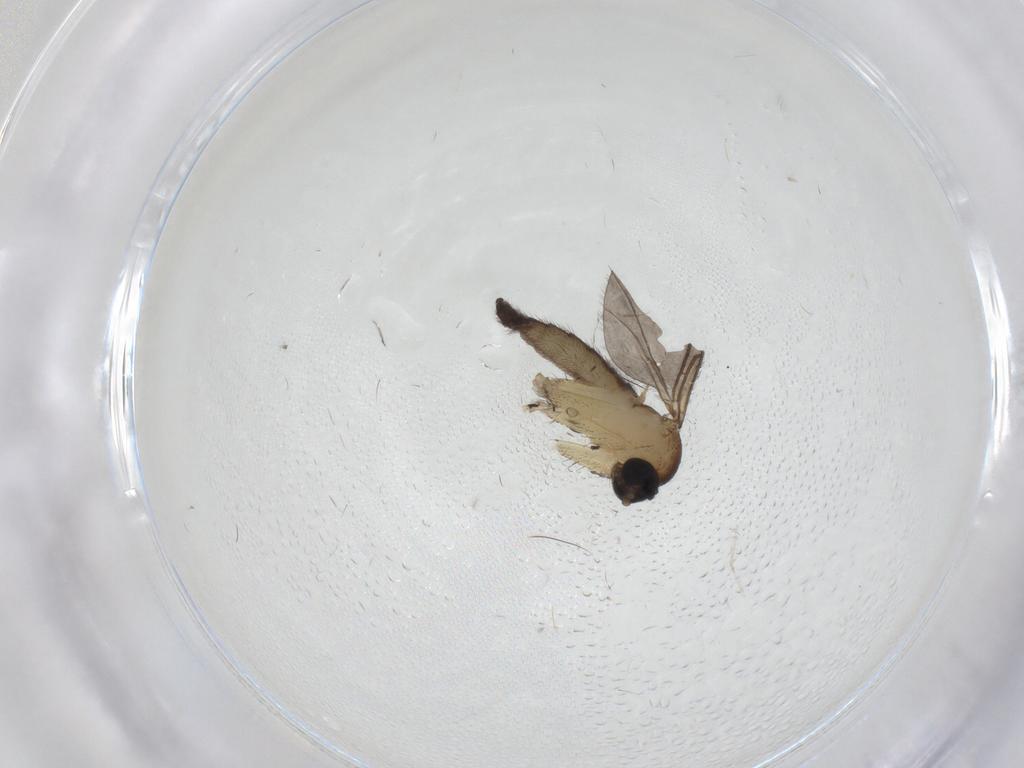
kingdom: Animalia
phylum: Arthropoda
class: Insecta
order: Diptera
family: Sciaridae
